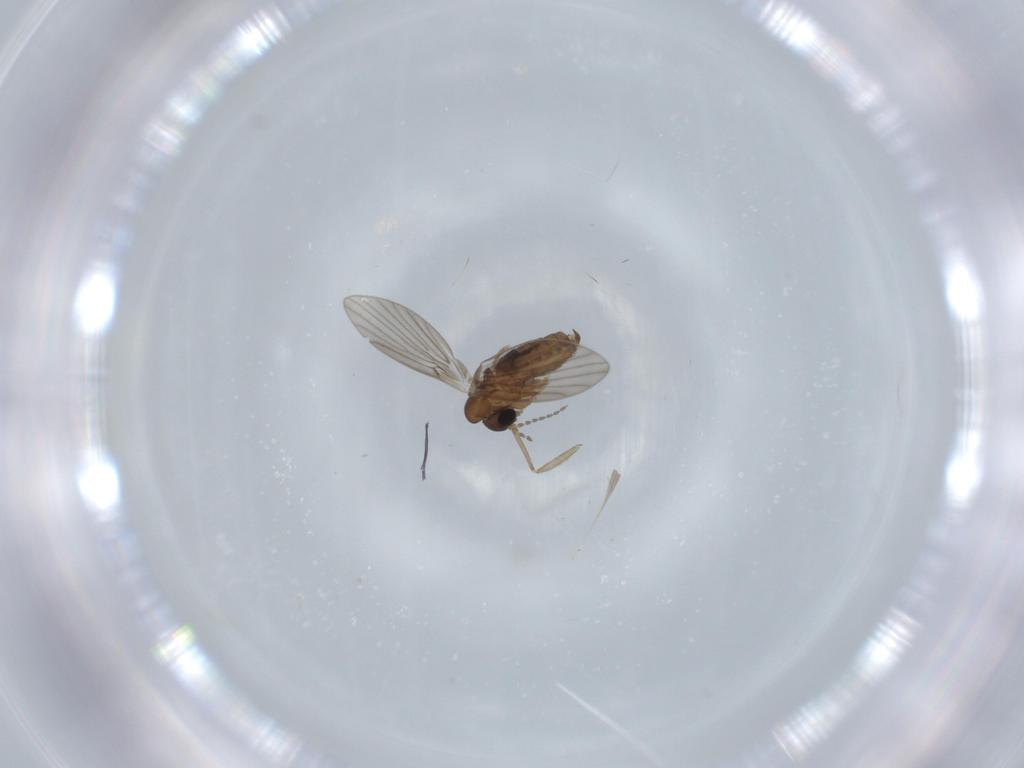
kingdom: Animalia
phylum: Arthropoda
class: Insecta
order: Diptera
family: Psychodidae
